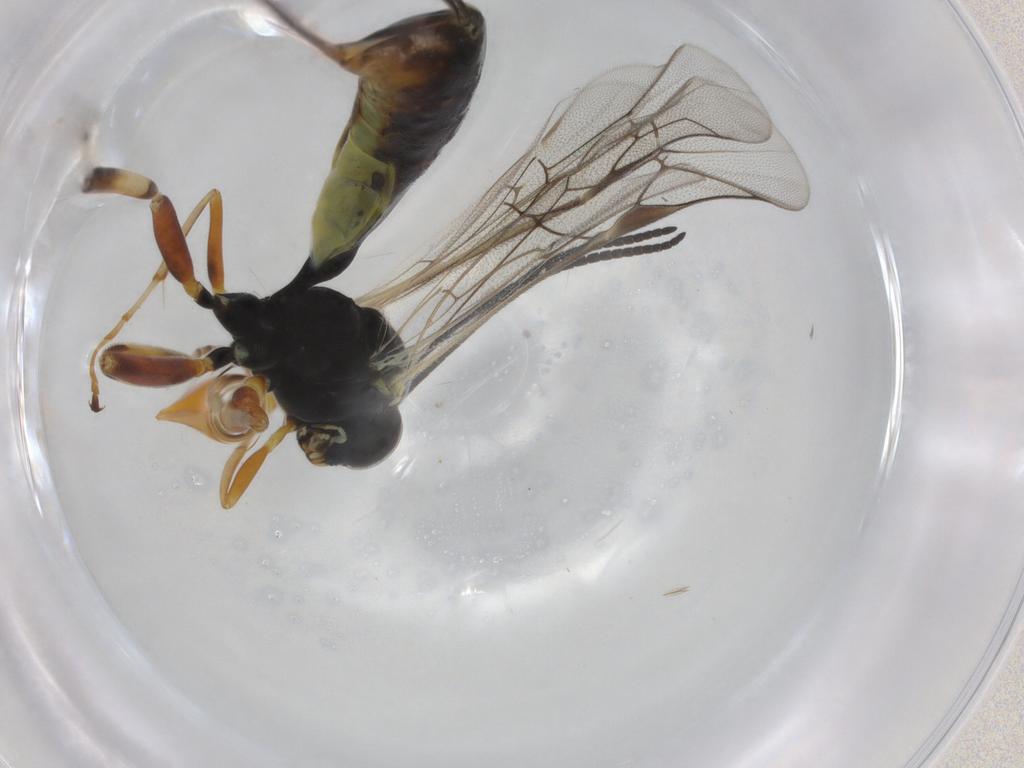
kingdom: Animalia
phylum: Arthropoda
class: Insecta
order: Hymenoptera
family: Ichneumonidae
